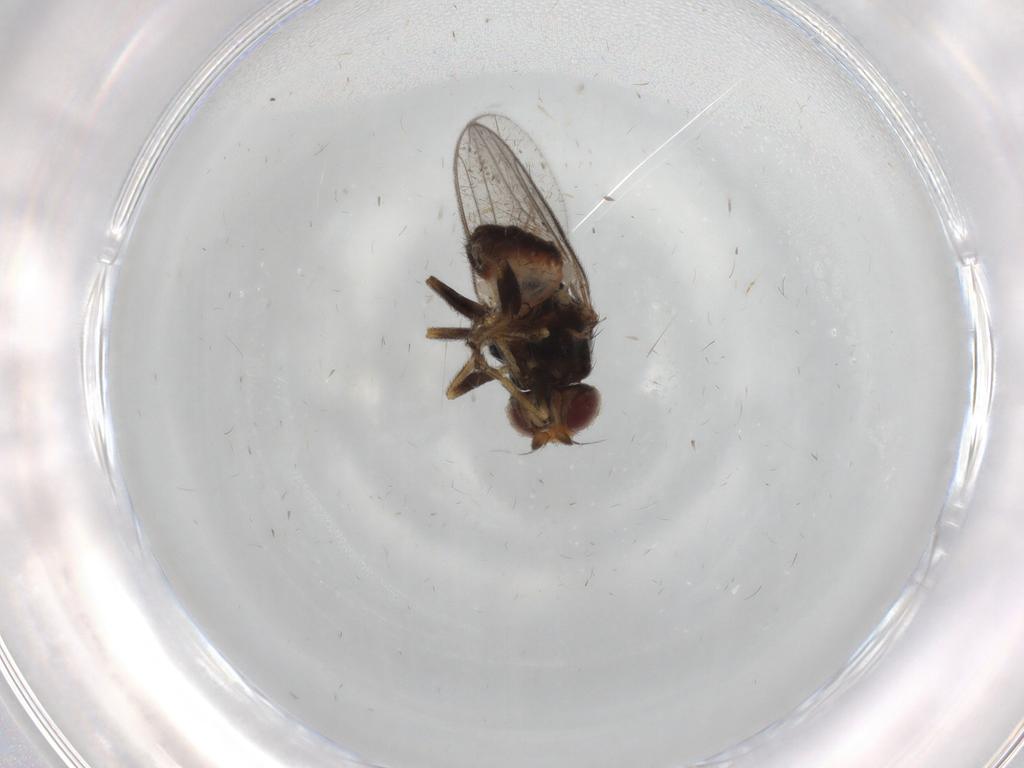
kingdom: Animalia
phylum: Arthropoda
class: Insecta
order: Diptera
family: Chloropidae
